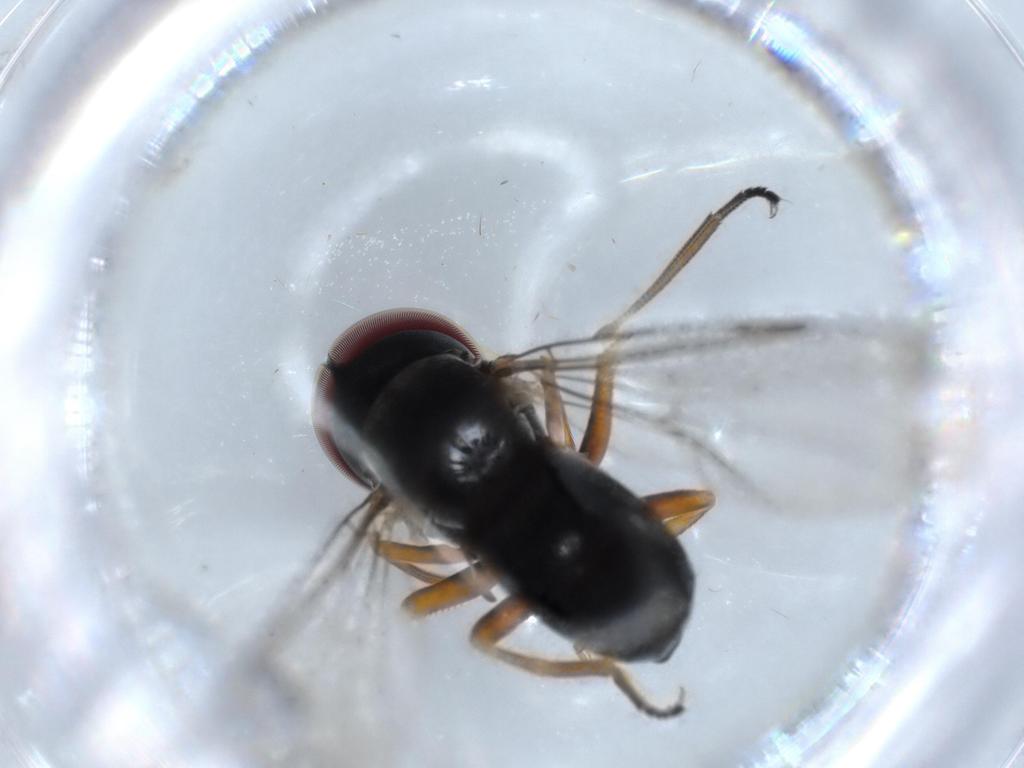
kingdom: Animalia
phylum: Arthropoda
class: Insecta
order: Diptera
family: Pipunculidae
